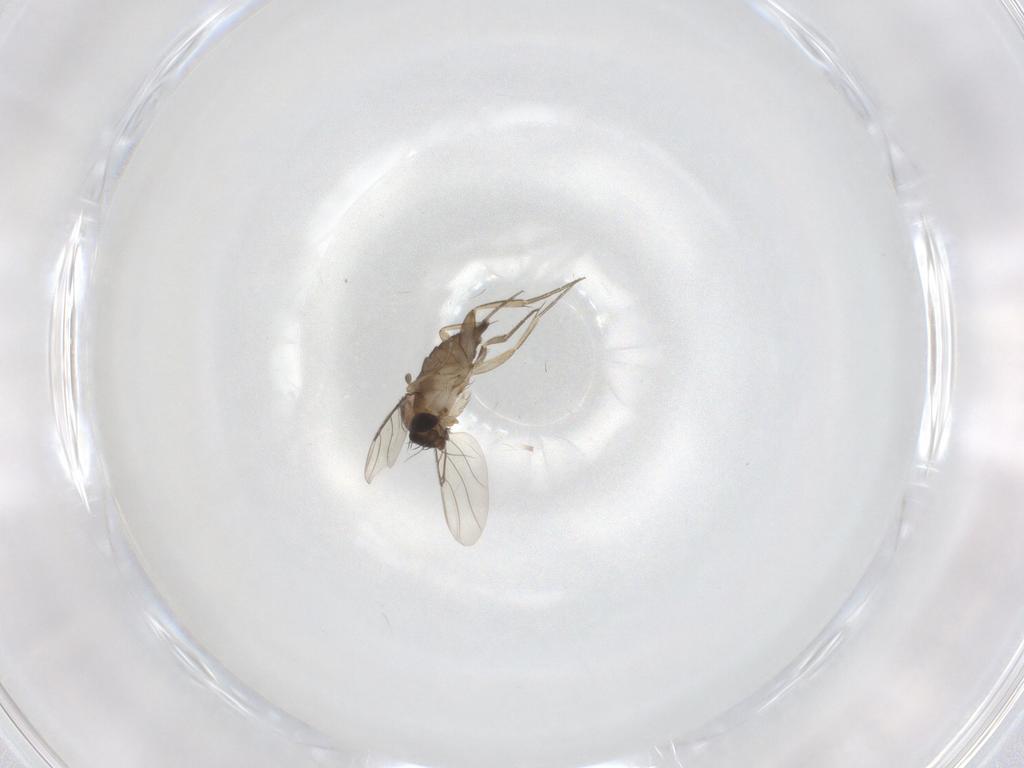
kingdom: Animalia
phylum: Arthropoda
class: Insecta
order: Diptera
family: Phoridae
